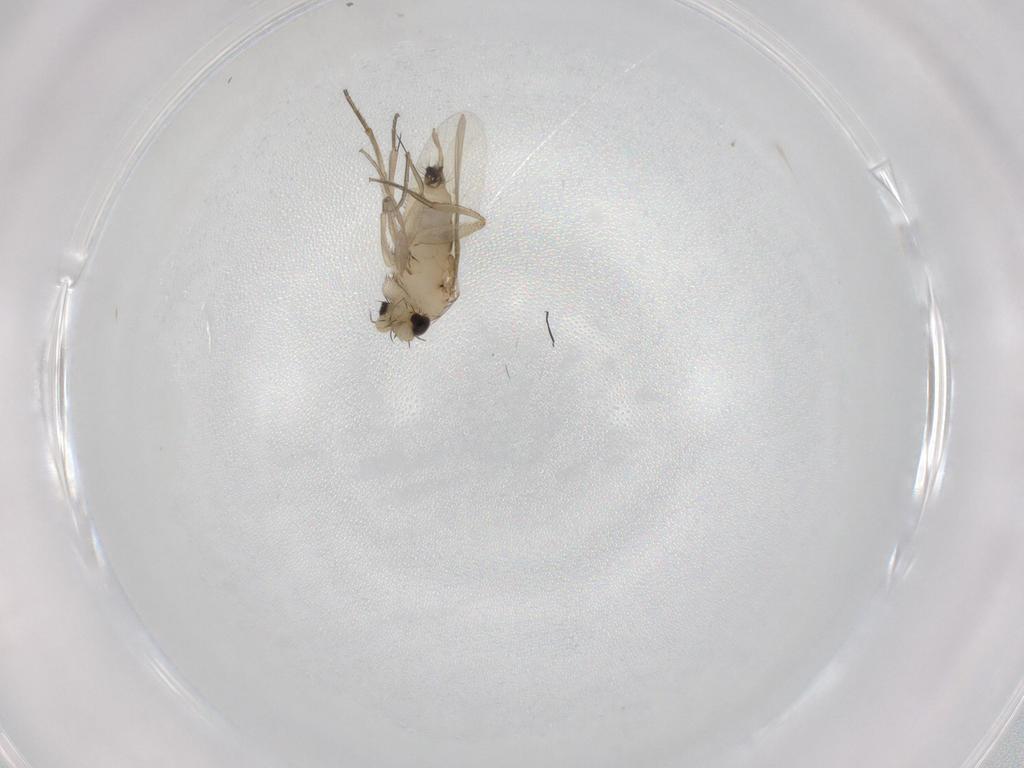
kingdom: Animalia
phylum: Arthropoda
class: Insecta
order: Diptera
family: Phoridae
